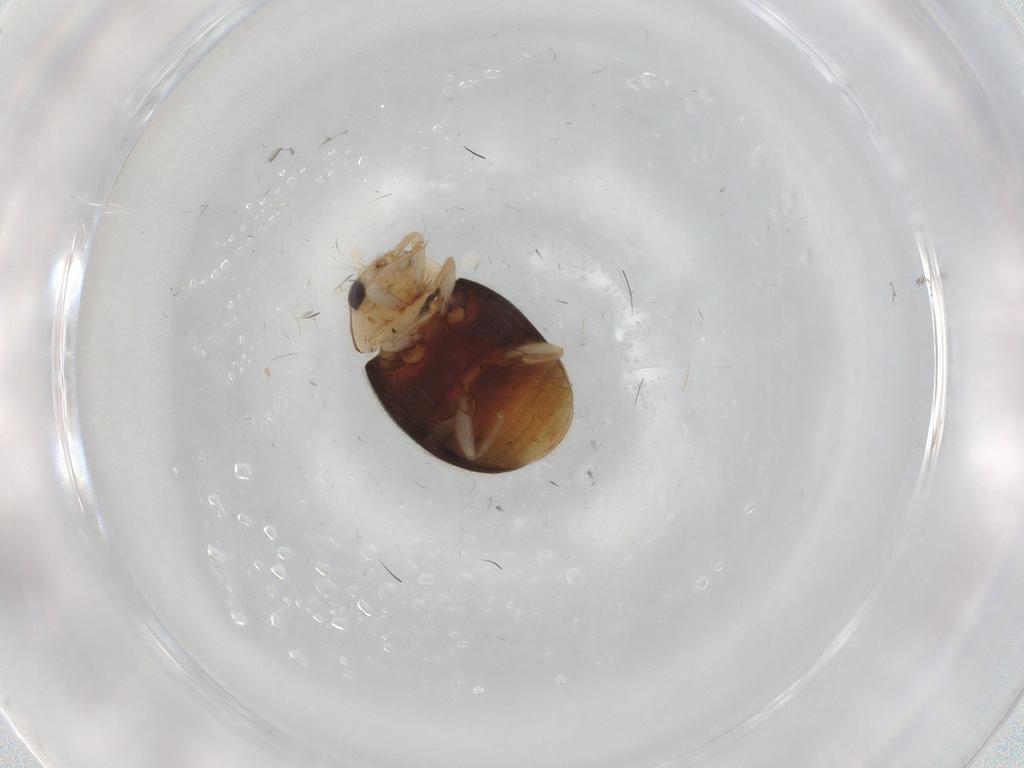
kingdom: Animalia
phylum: Arthropoda
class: Insecta
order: Coleoptera
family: Coccinellidae
